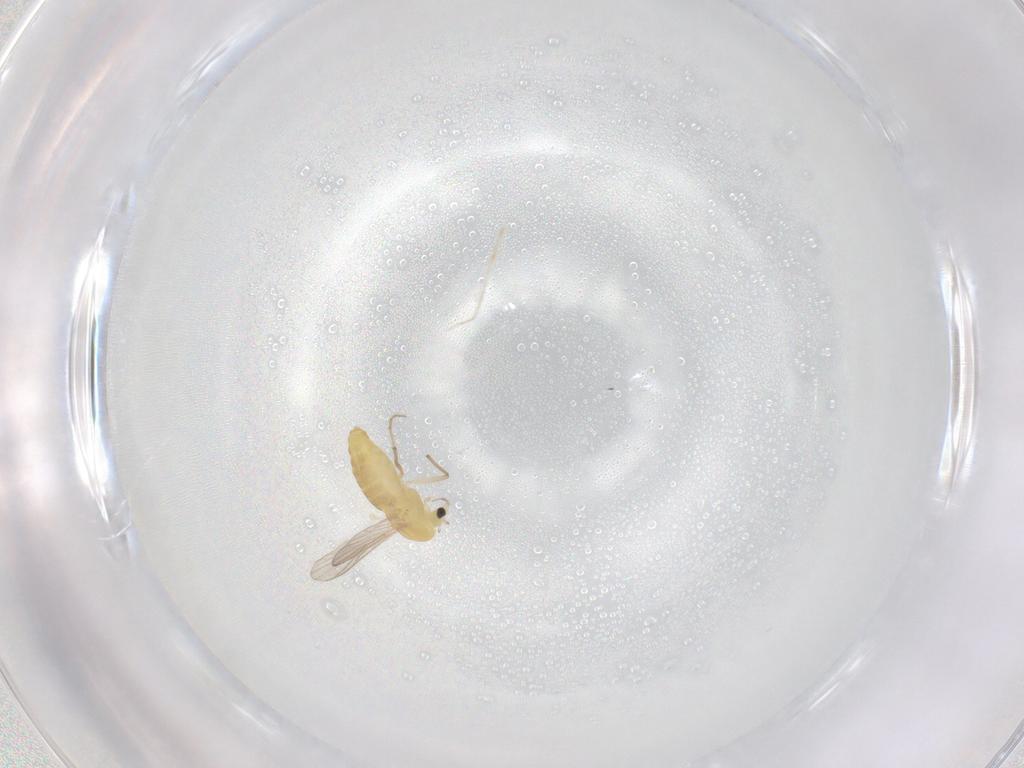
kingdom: Animalia
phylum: Arthropoda
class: Insecta
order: Diptera
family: Chironomidae
